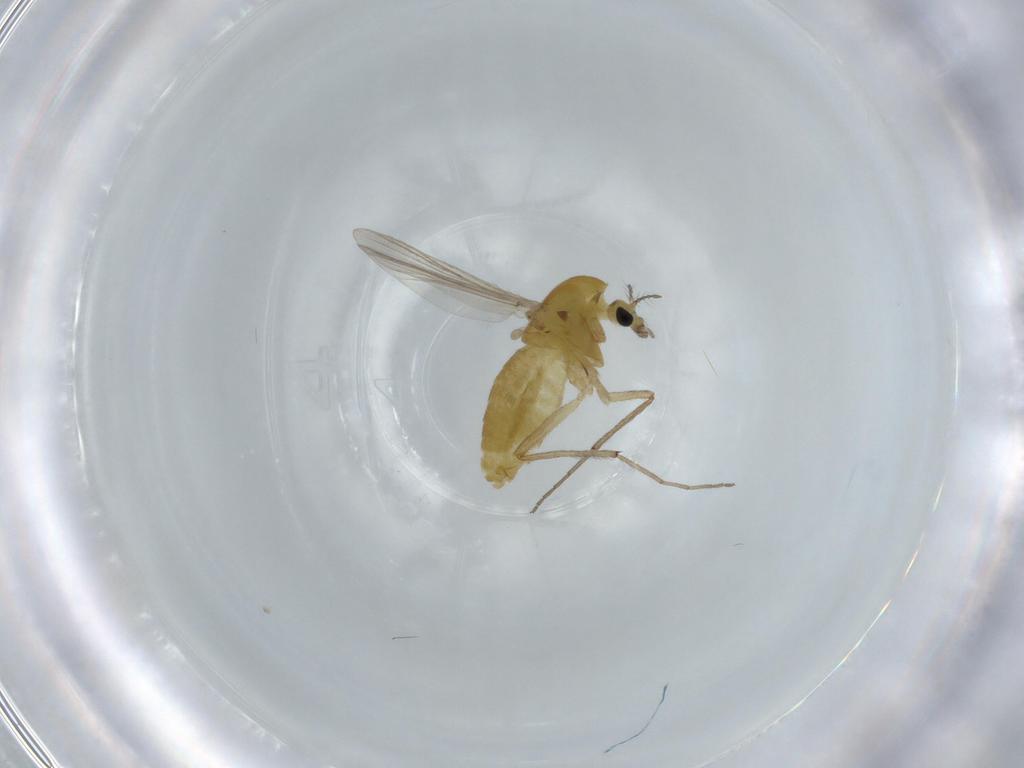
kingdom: Animalia
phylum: Arthropoda
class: Insecta
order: Diptera
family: Chironomidae
